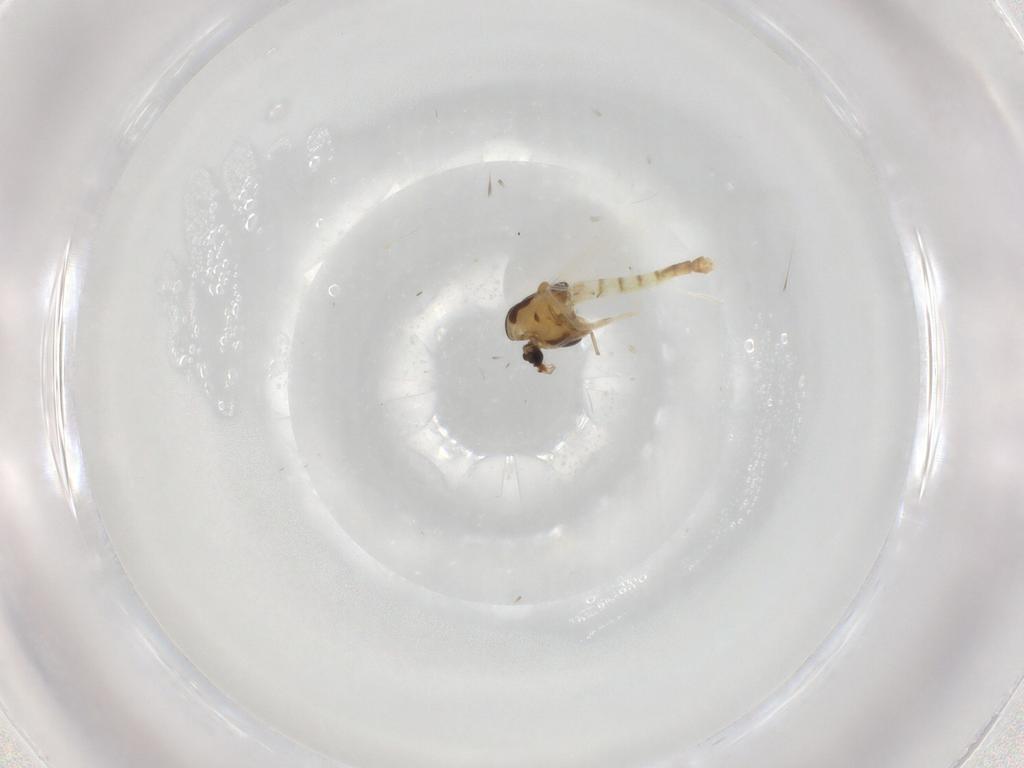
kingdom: Animalia
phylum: Arthropoda
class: Insecta
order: Diptera
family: Chironomidae
